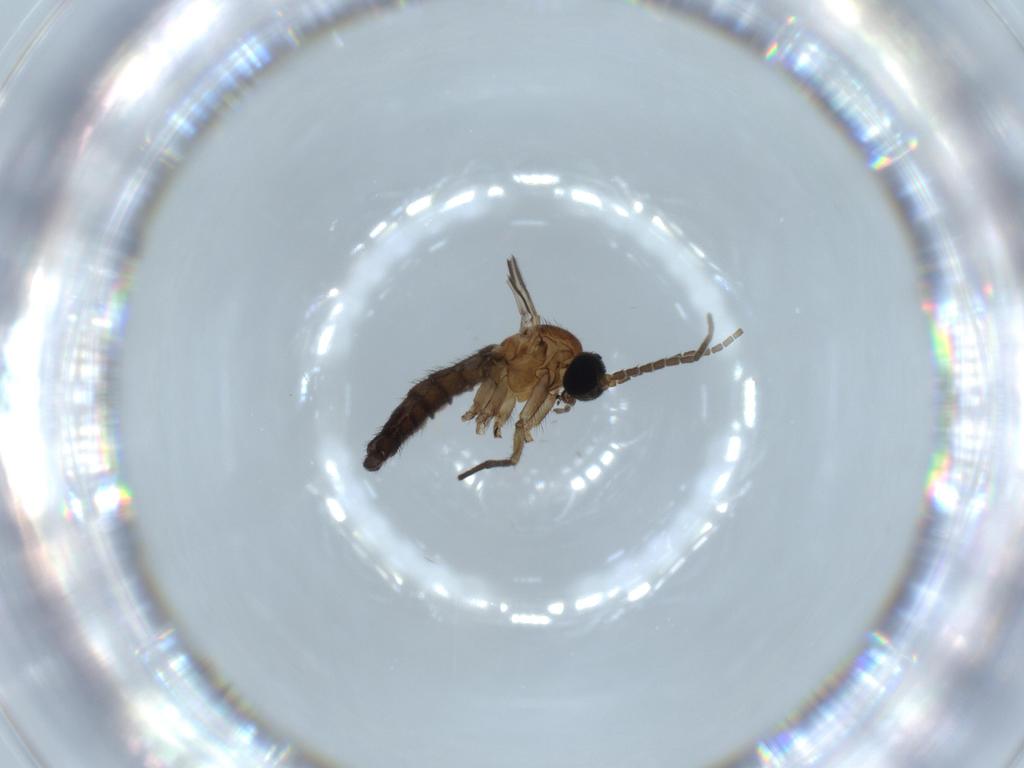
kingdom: Animalia
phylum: Arthropoda
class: Insecta
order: Diptera
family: Sciaridae
